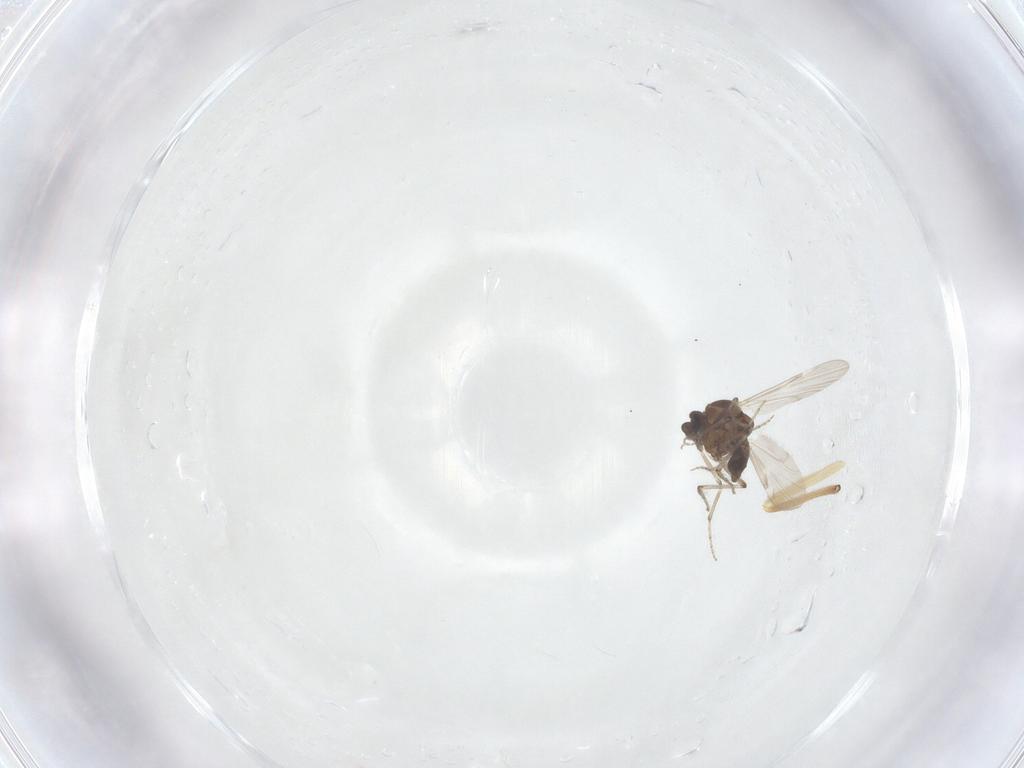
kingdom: Animalia
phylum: Arthropoda
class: Insecta
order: Diptera
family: Ceratopogonidae
